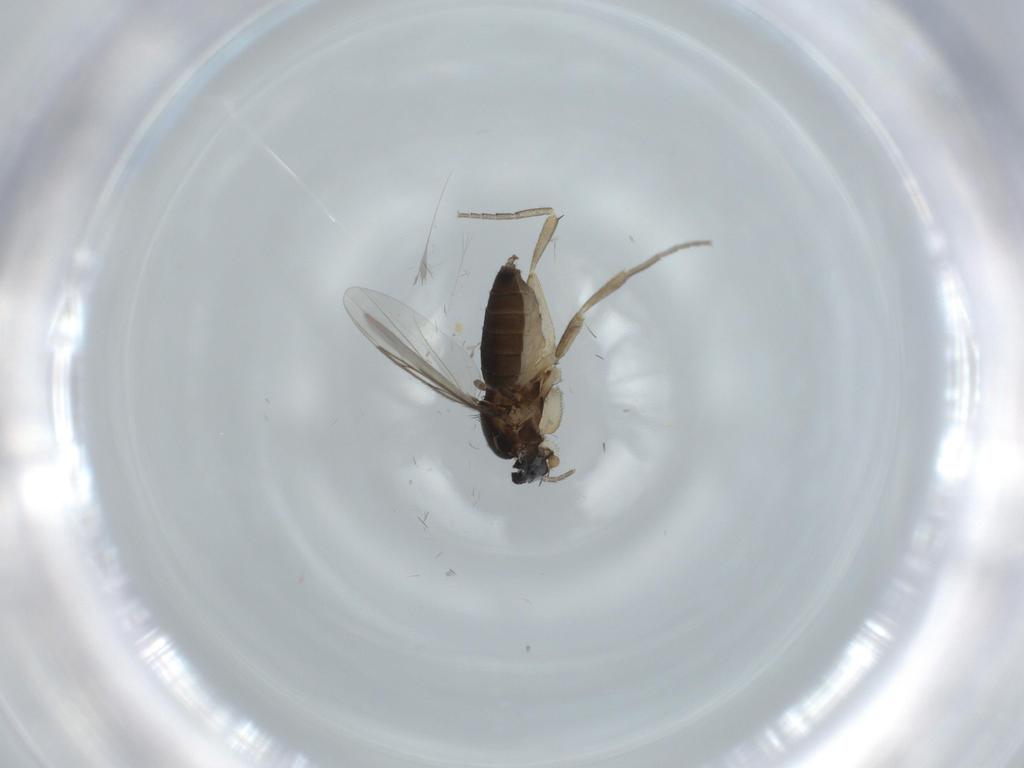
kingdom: Animalia
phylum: Arthropoda
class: Insecta
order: Diptera
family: Phoridae
